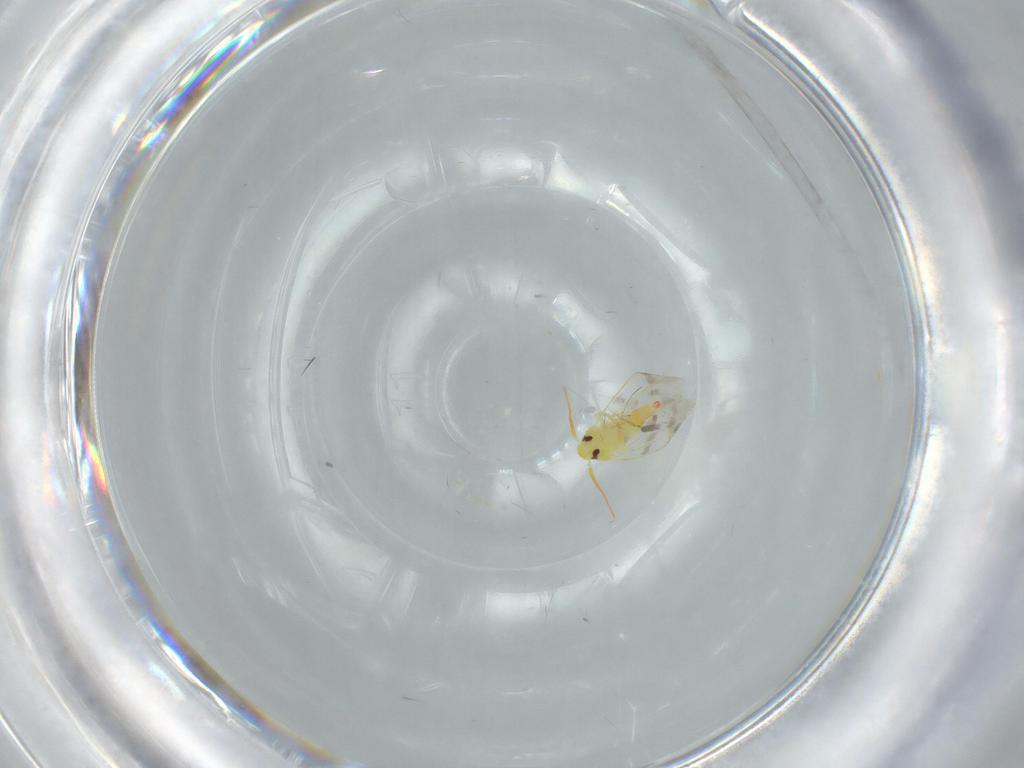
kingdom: Animalia
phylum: Arthropoda
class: Insecta
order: Hemiptera
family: Aleyrodidae
